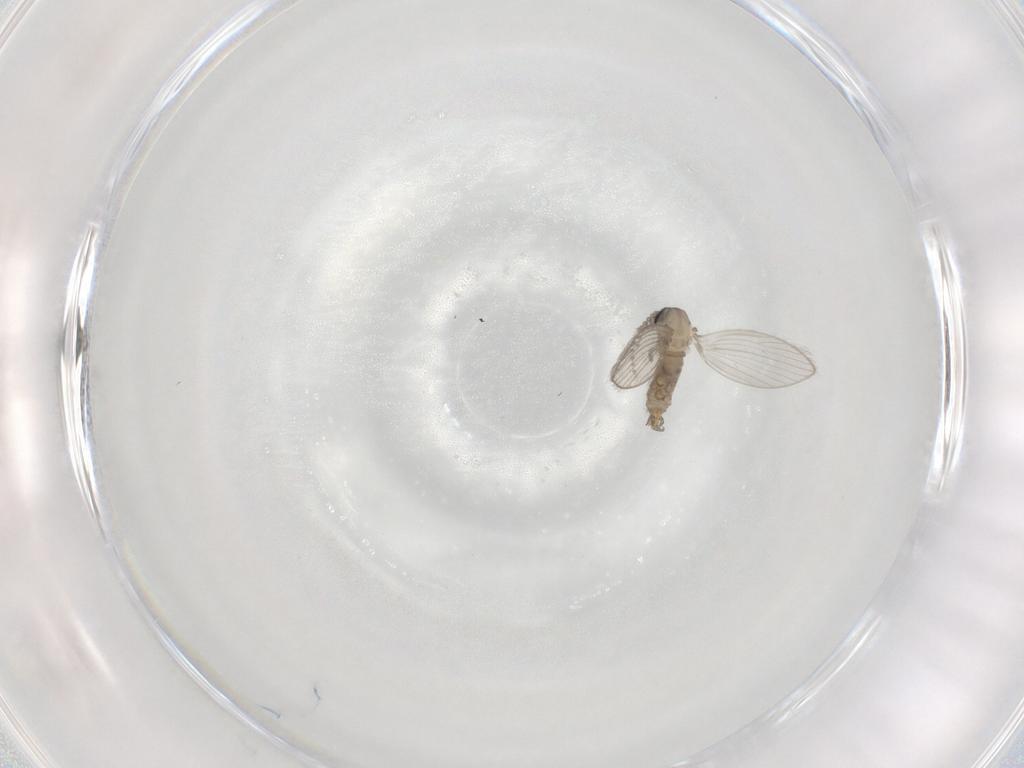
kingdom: Animalia
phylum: Arthropoda
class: Insecta
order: Diptera
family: Psychodidae
